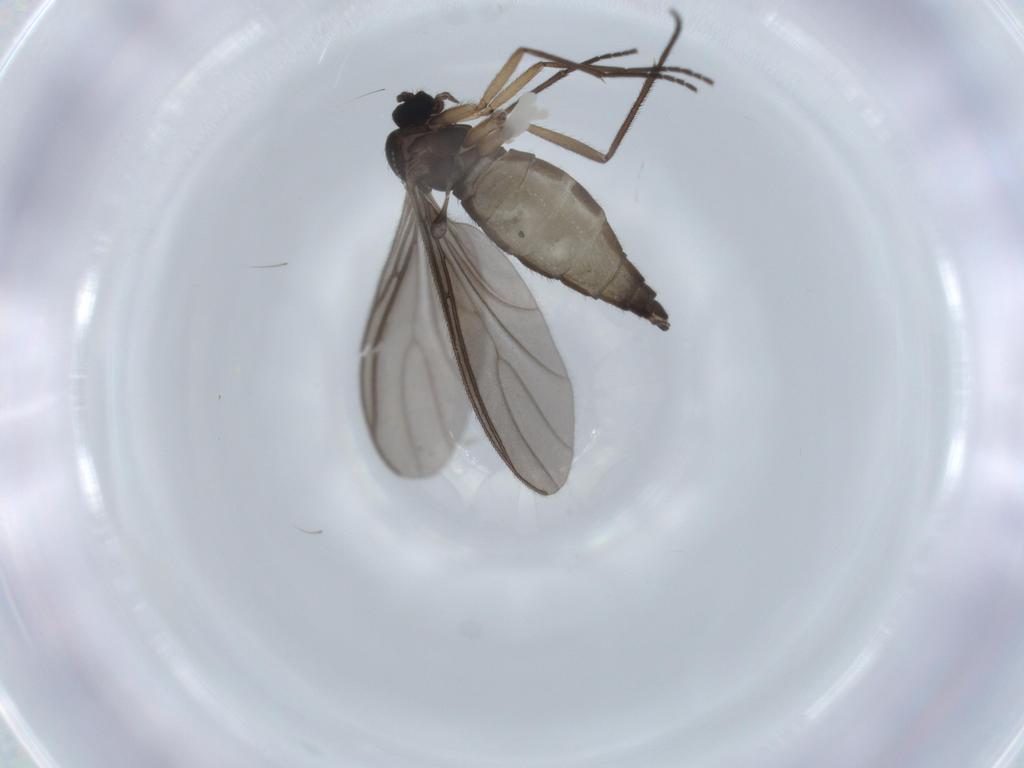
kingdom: Animalia
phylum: Arthropoda
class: Insecta
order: Diptera
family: Sciaridae
